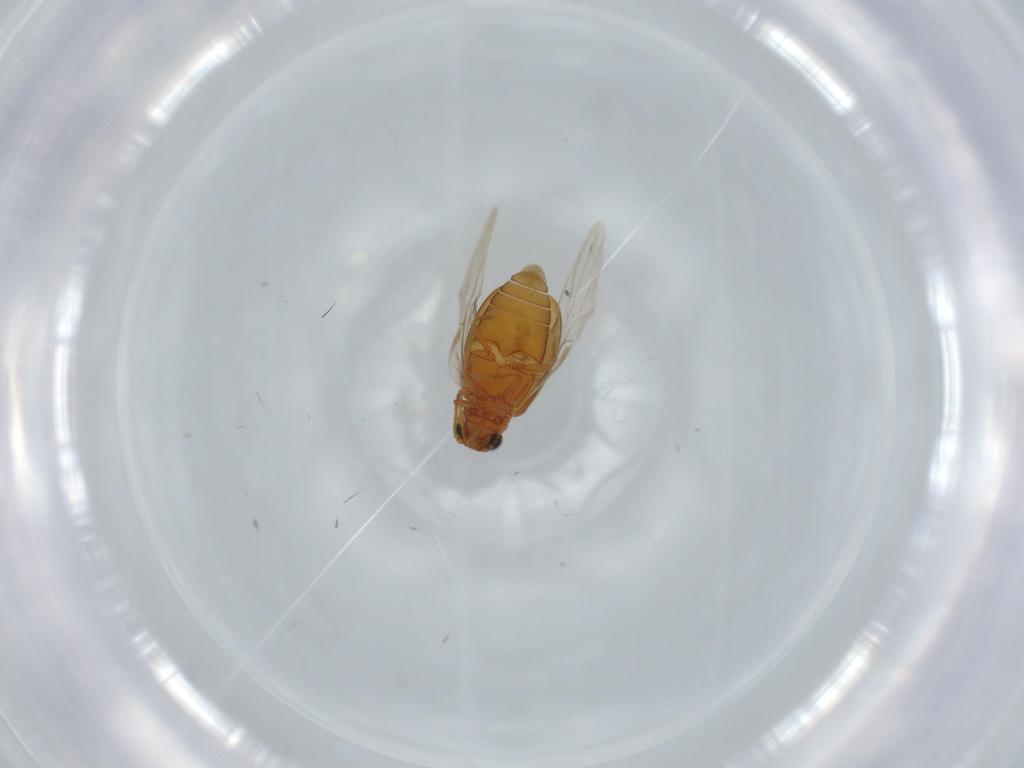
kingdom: Animalia
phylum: Arthropoda
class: Insecta
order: Coleoptera
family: Aderidae
